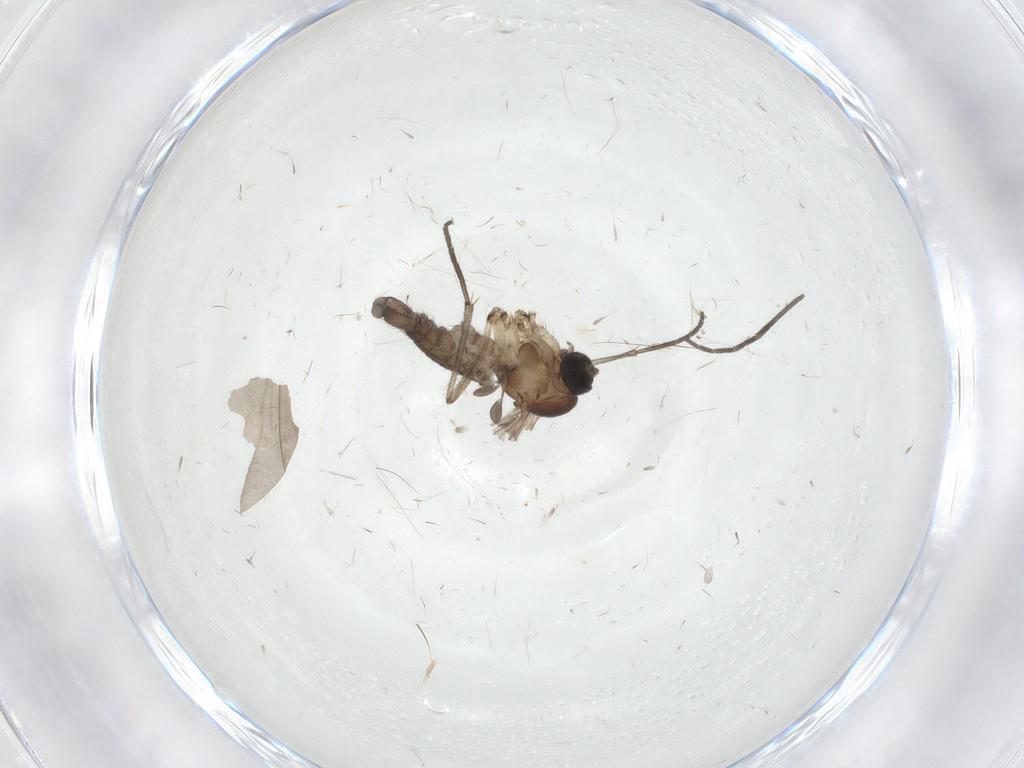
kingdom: Animalia
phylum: Arthropoda
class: Insecta
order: Diptera
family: Sciaridae
